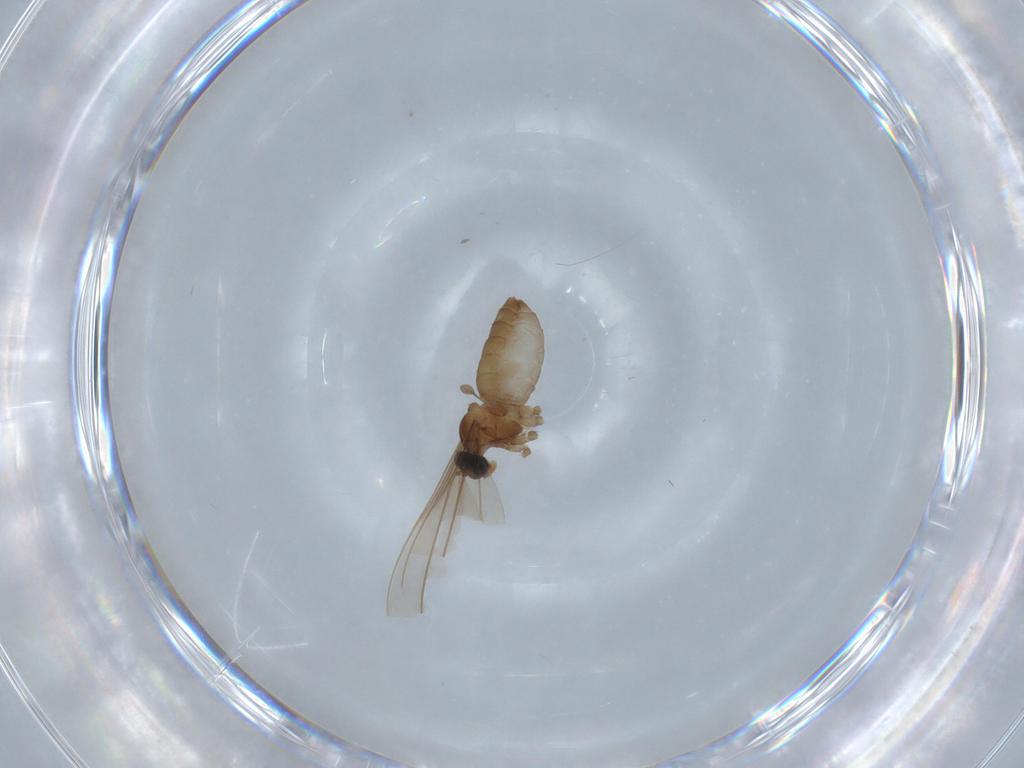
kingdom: Animalia
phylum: Arthropoda
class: Insecta
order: Diptera
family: Cecidomyiidae
